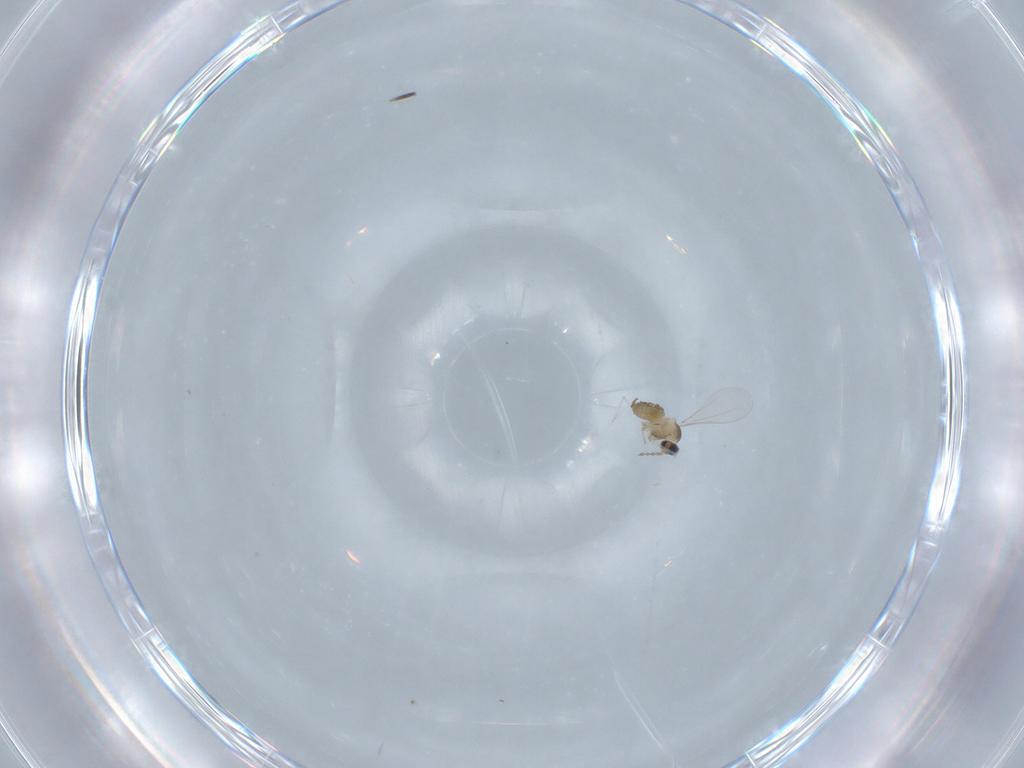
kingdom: Animalia
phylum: Arthropoda
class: Insecta
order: Diptera
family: Cecidomyiidae
